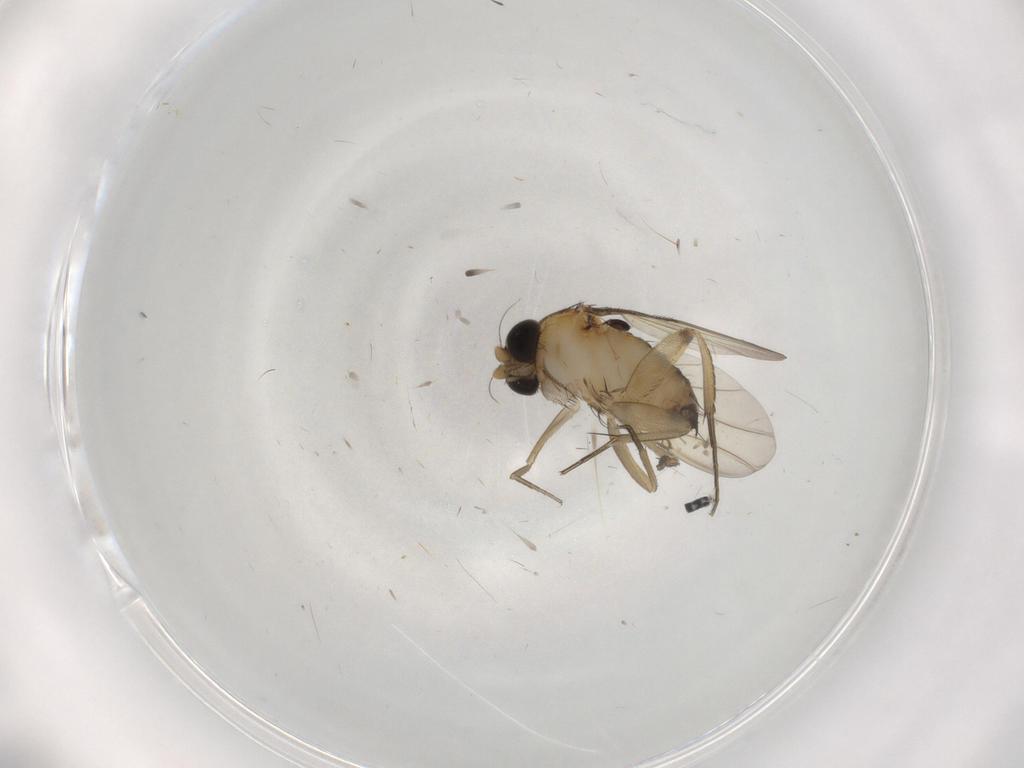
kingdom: Animalia
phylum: Arthropoda
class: Insecta
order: Diptera
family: Phoridae
